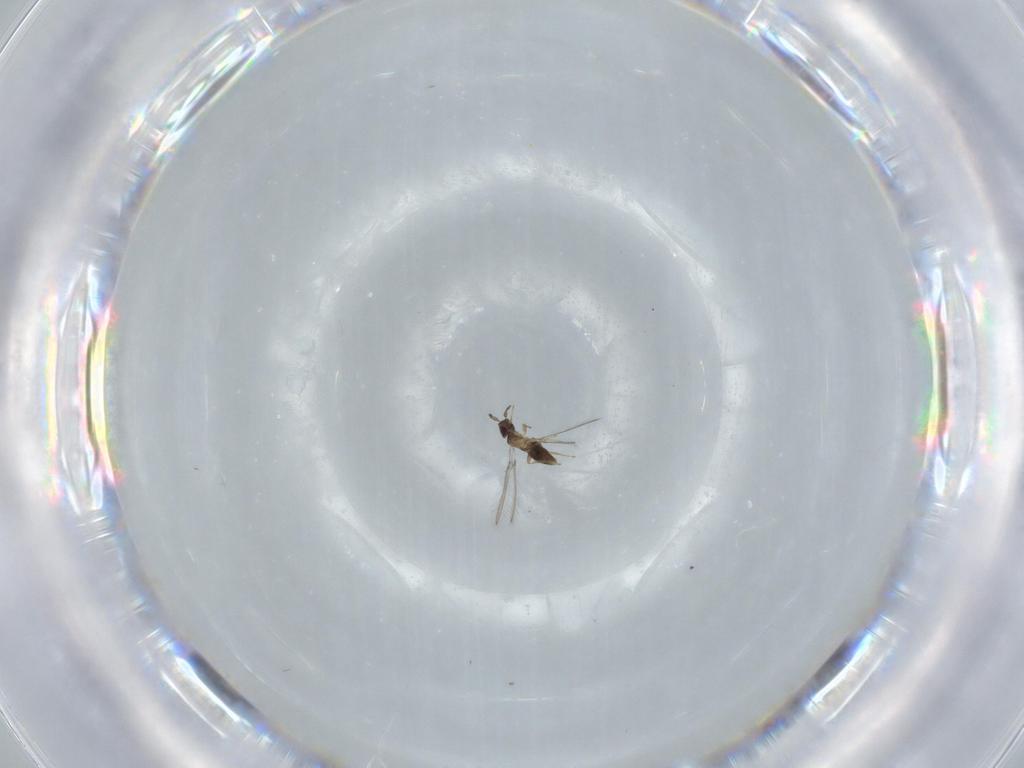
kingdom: Animalia
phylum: Arthropoda
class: Insecta
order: Hymenoptera
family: Mymaridae
